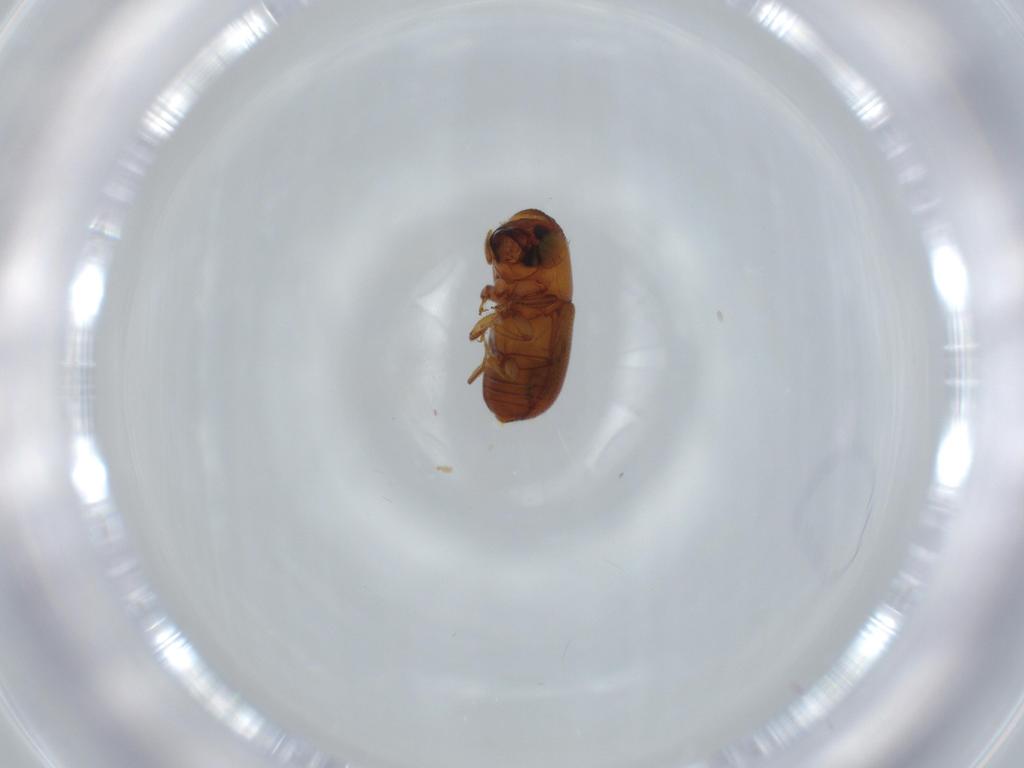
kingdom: Animalia
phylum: Arthropoda
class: Insecta
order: Coleoptera
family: Curculionidae
